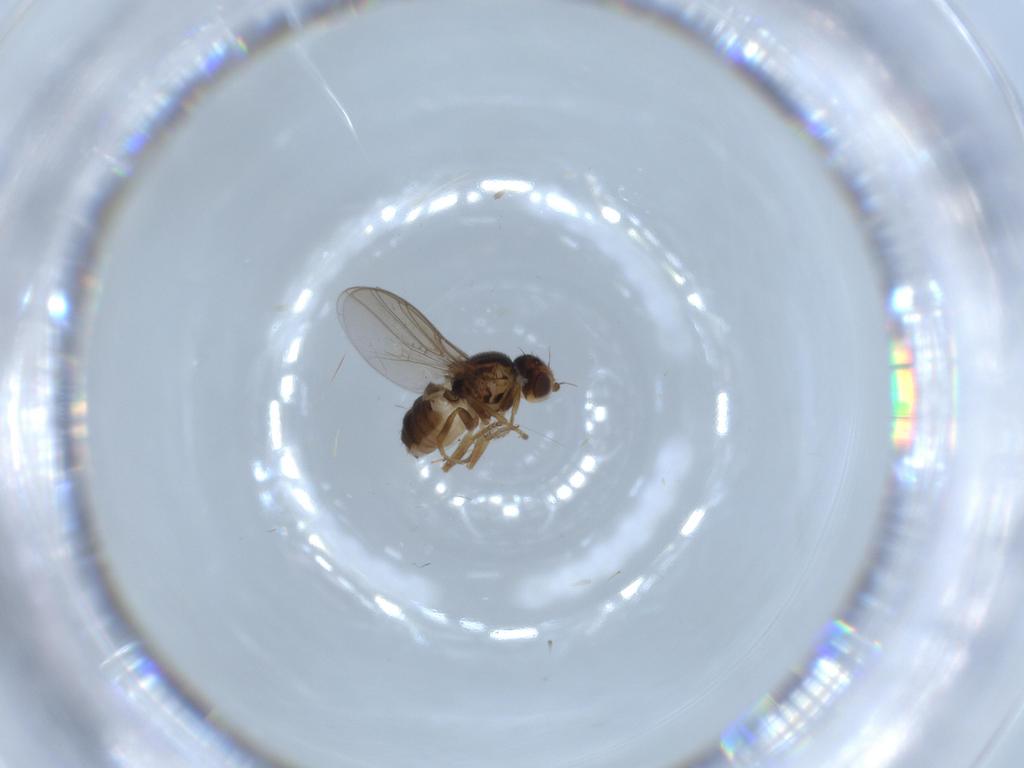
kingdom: Animalia
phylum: Arthropoda
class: Insecta
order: Diptera
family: Chloropidae
